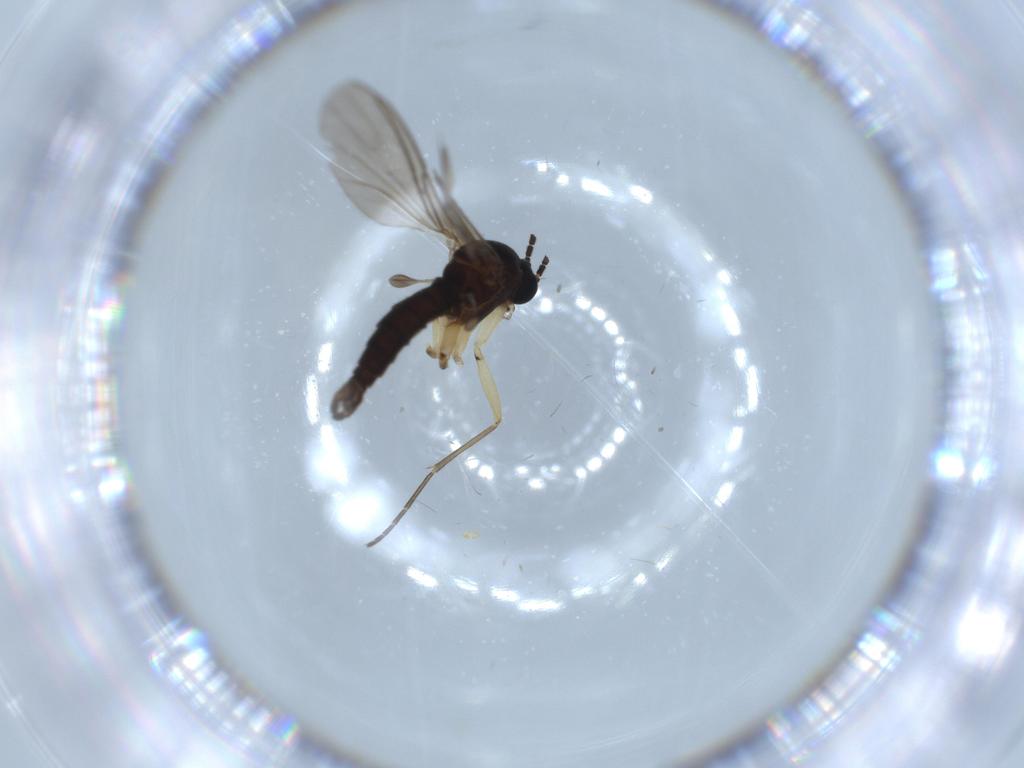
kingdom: Animalia
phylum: Arthropoda
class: Insecta
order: Diptera
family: Sciaridae
